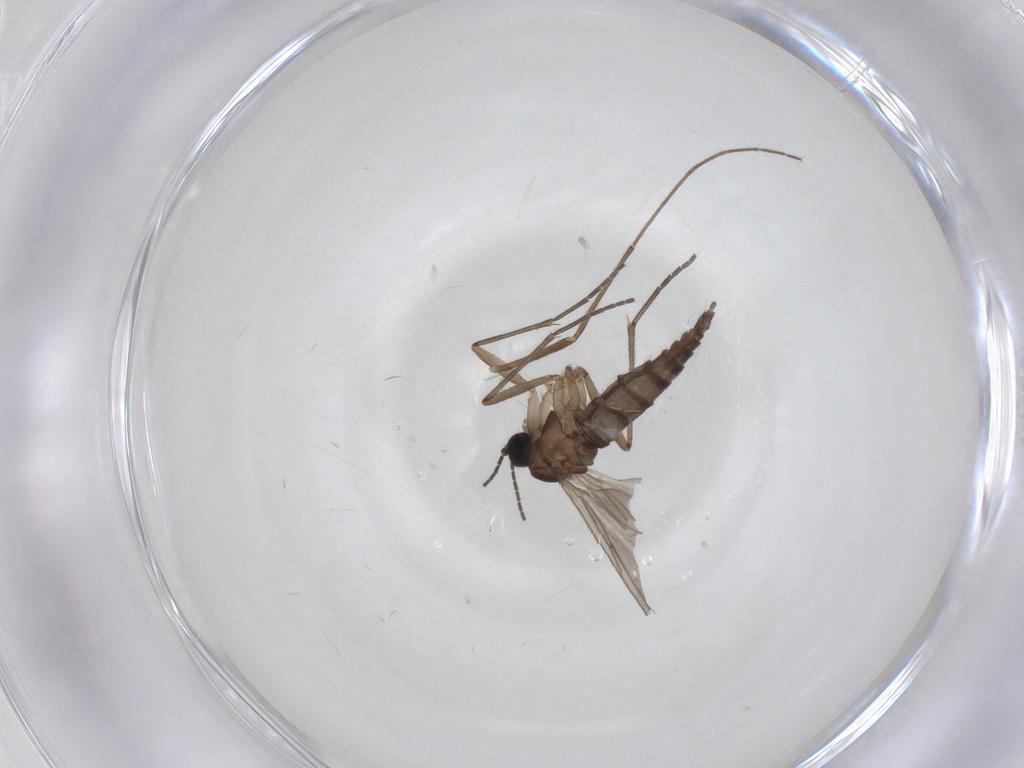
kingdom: Animalia
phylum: Arthropoda
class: Insecta
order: Diptera
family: Sciaridae
